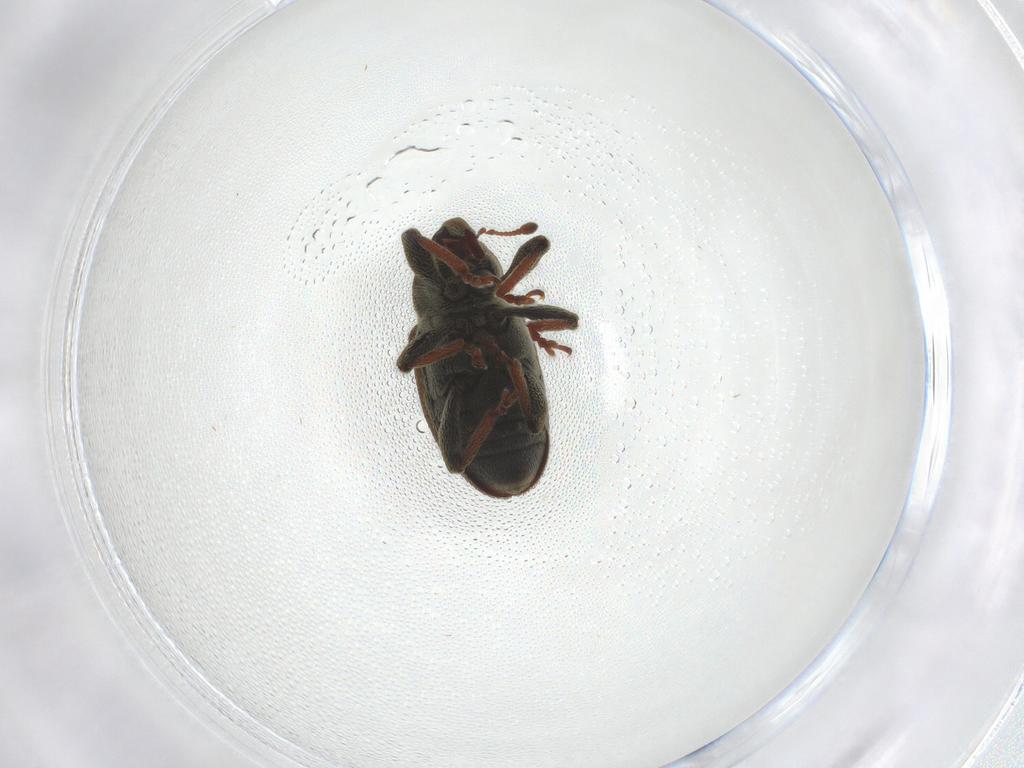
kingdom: Animalia
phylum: Arthropoda
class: Insecta
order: Coleoptera
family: Curculionidae
